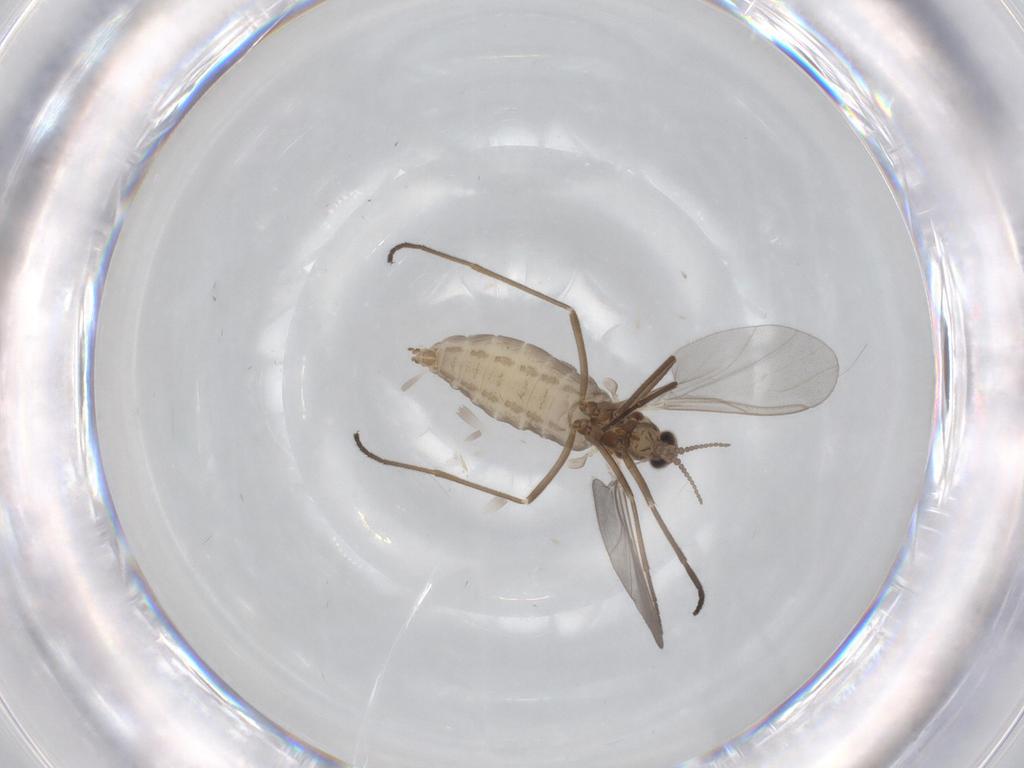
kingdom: Animalia
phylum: Arthropoda
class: Insecta
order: Diptera
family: Cecidomyiidae
